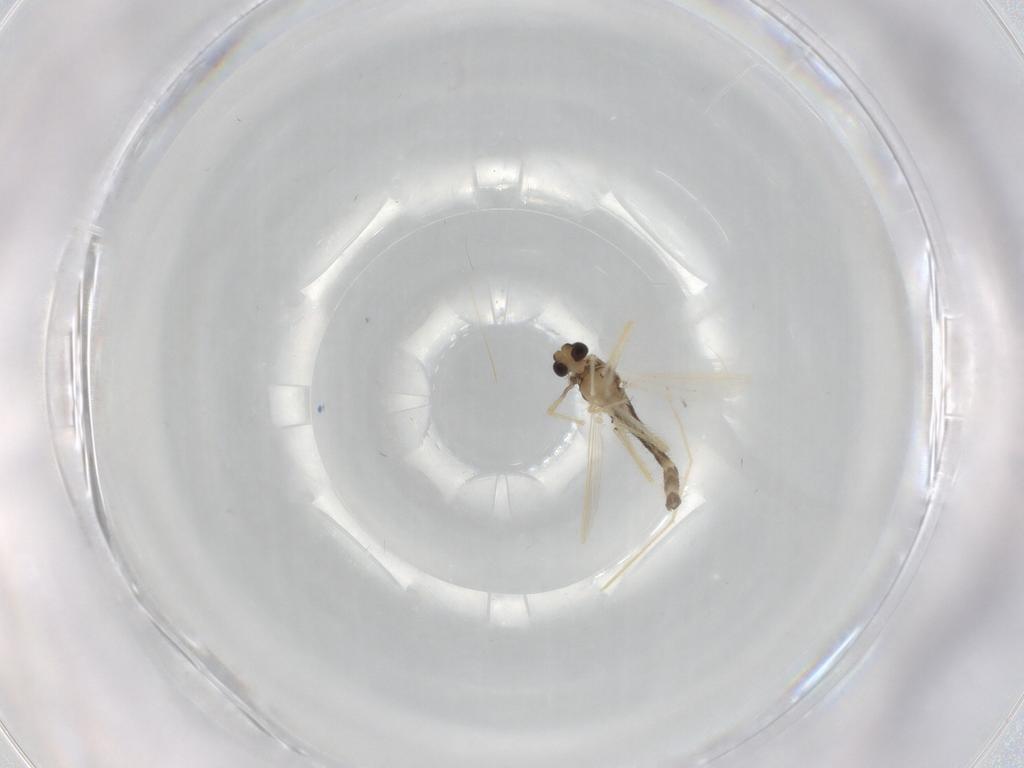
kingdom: Animalia
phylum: Arthropoda
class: Insecta
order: Diptera
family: Chironomidae
